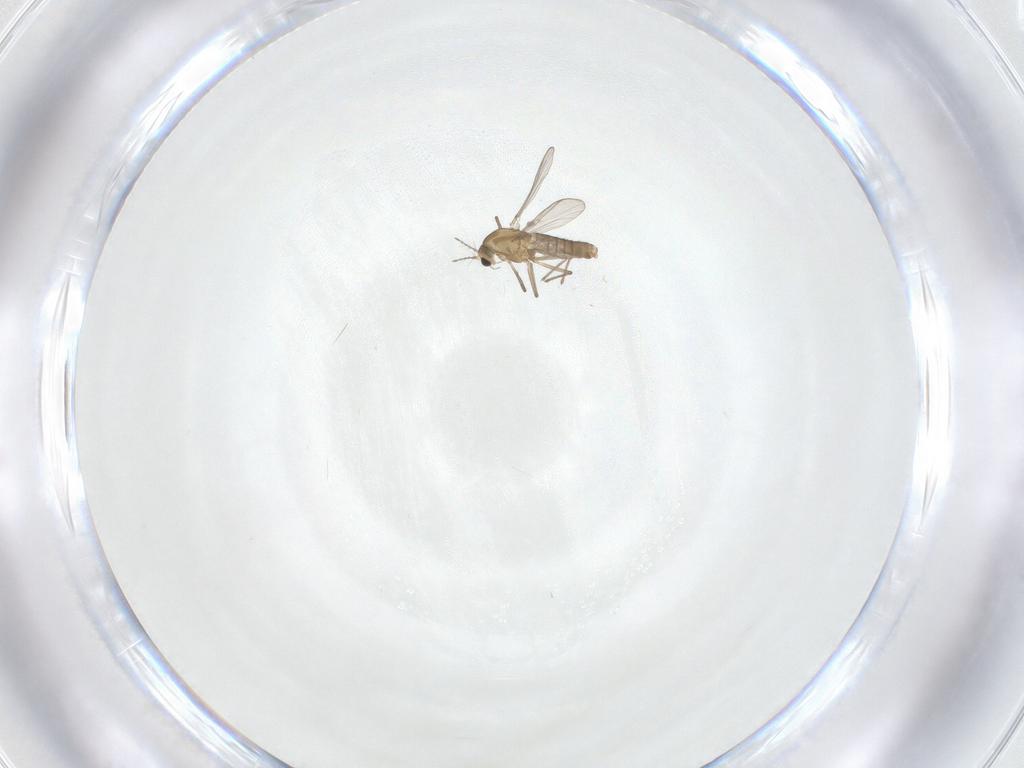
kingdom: Animalia
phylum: Arthropoda
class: Insecta
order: Diptera
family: Chironomidae
